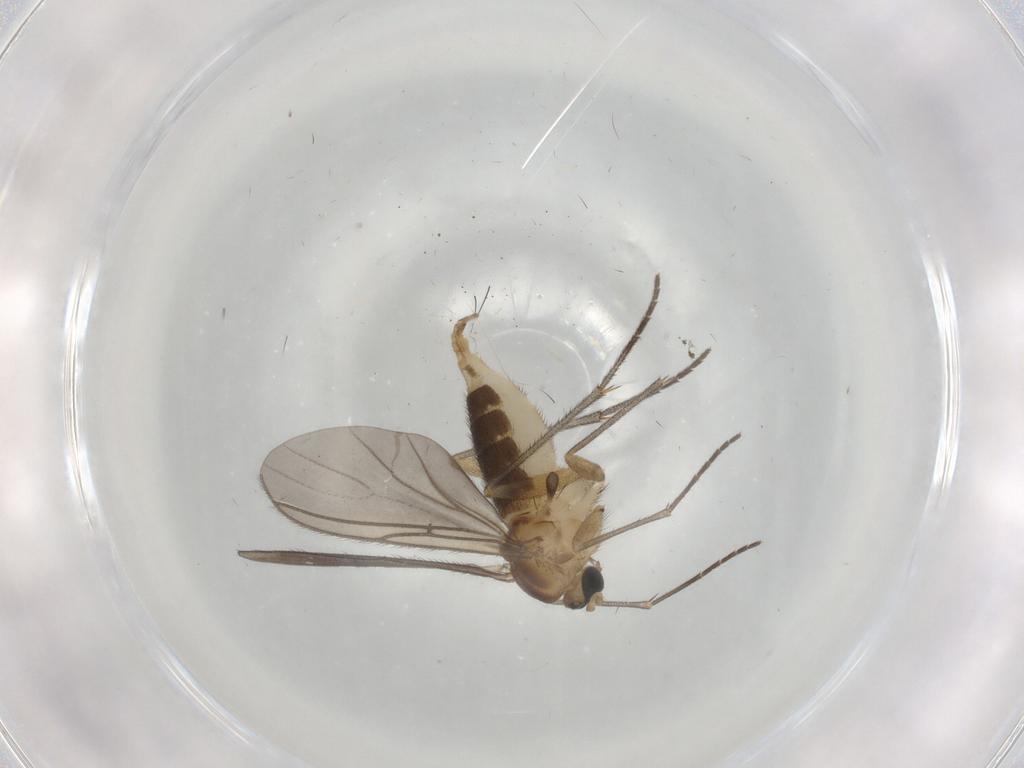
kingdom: Animalia
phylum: Arthropoda
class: Insecta
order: Diptera
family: Sciaridae
